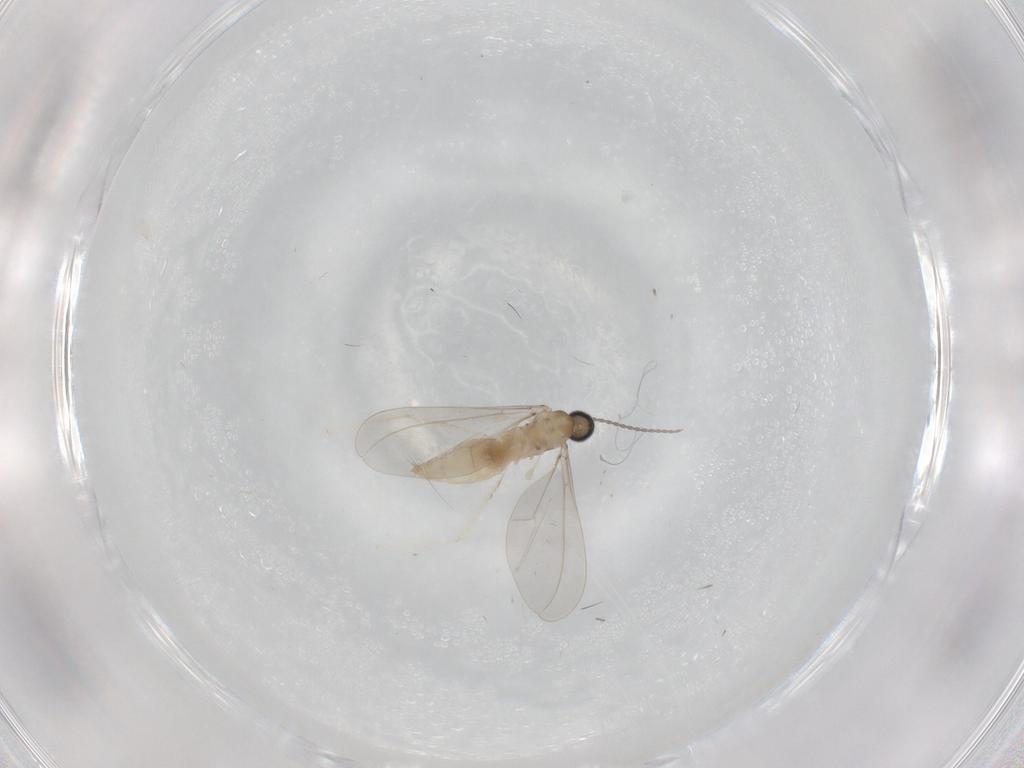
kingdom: Animalia
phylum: Arthropoda
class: Insecta
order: Diptera
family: Cecidomyiidae
